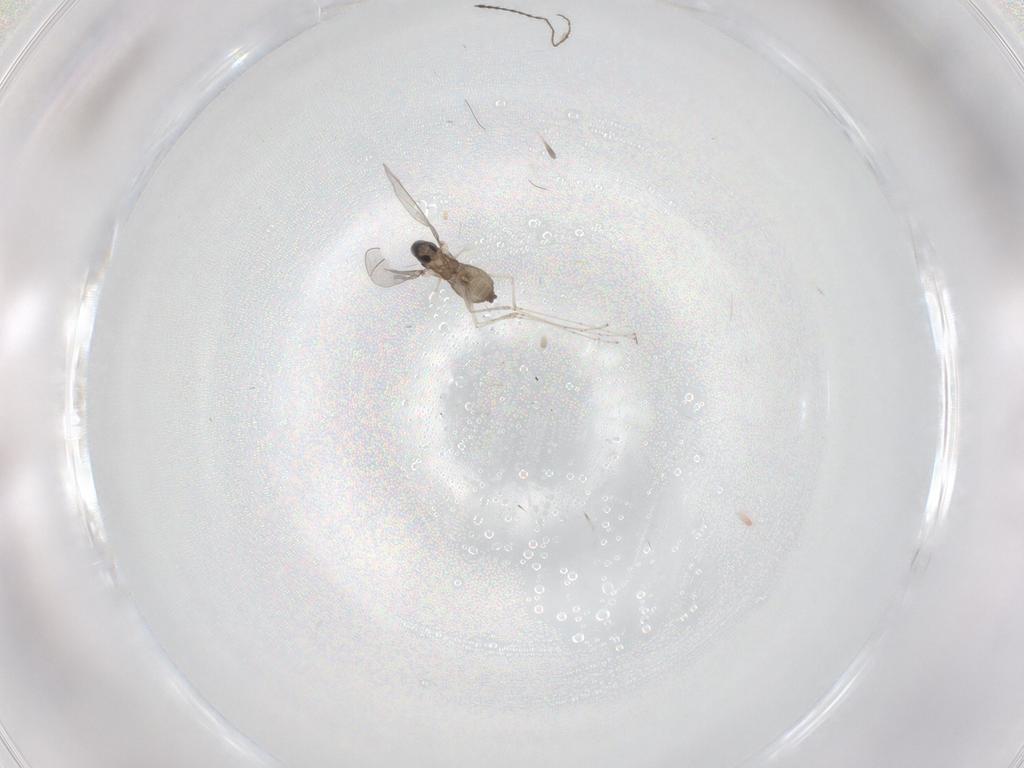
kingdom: Animalia
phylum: Arthropoda
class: Insecta
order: Diptera
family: Cecidomyiidae
